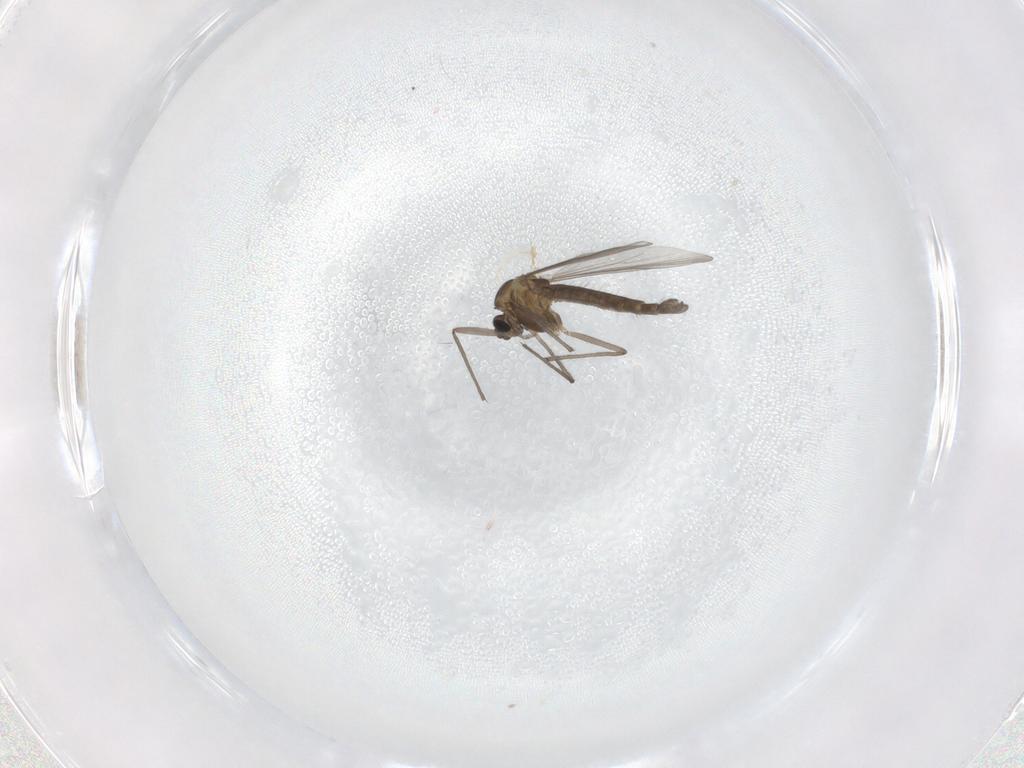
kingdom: Animalia
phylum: Arthropoda
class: Insecta
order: Diptera
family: Chironomidae
